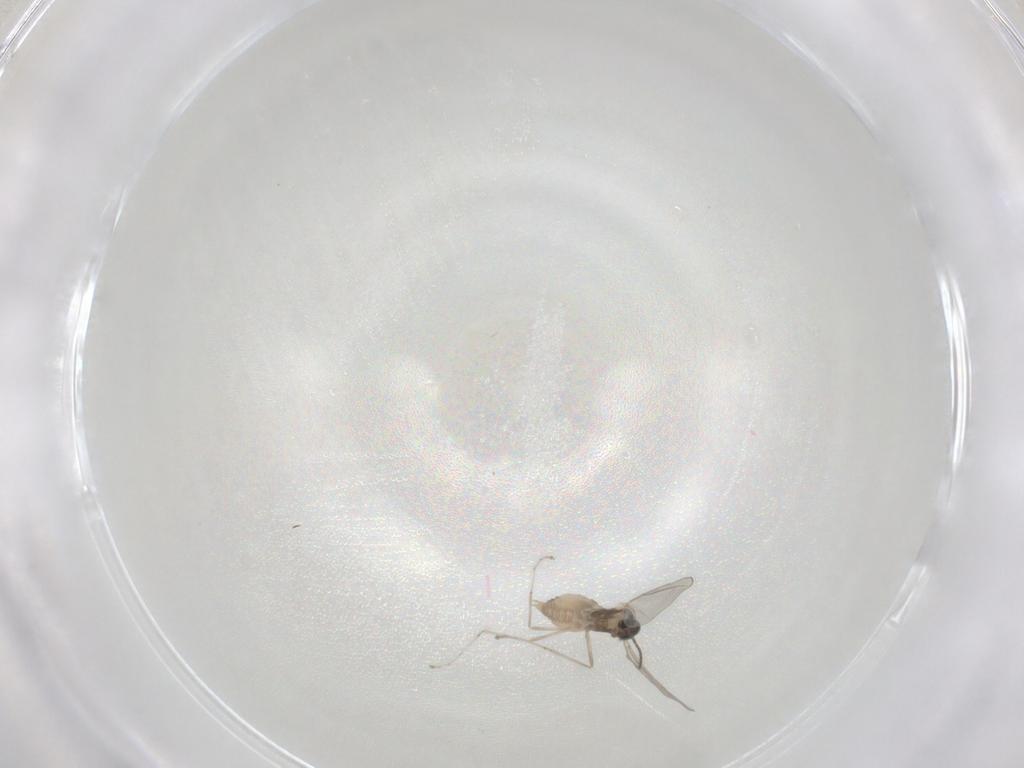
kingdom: Animalia
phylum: Arthropoda
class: Insecta
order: Diptera
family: Cecidomyiidae
